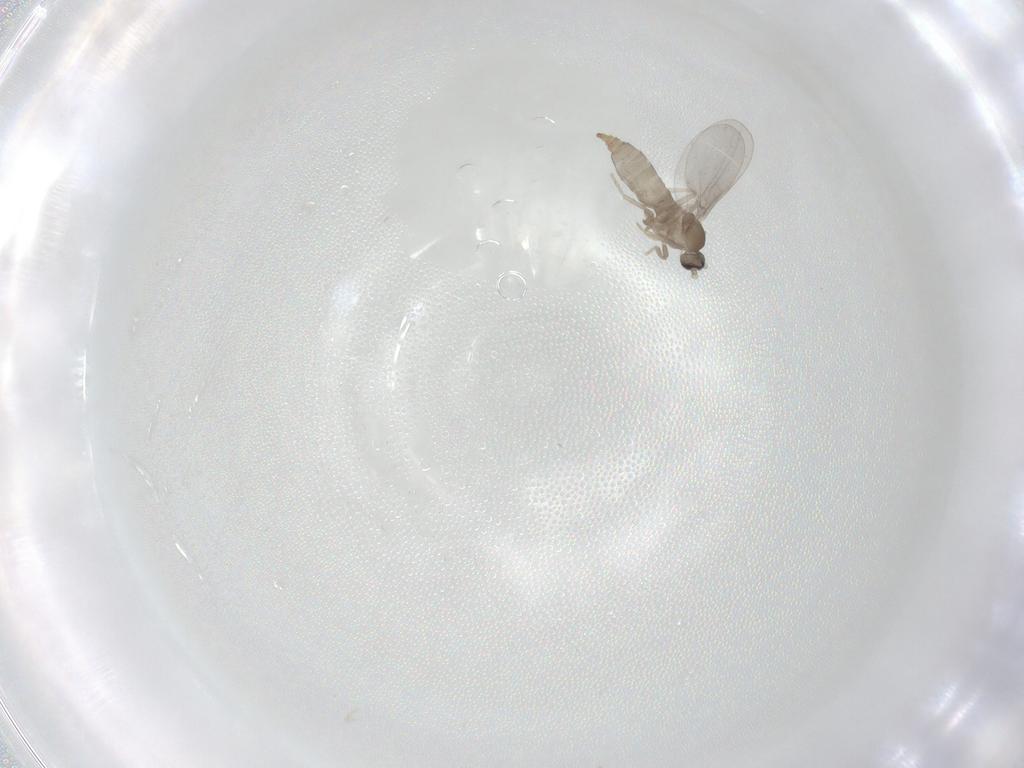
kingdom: Animalia
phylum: Arthropoda
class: Insecta
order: Diptera
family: Cecidomyiidae
